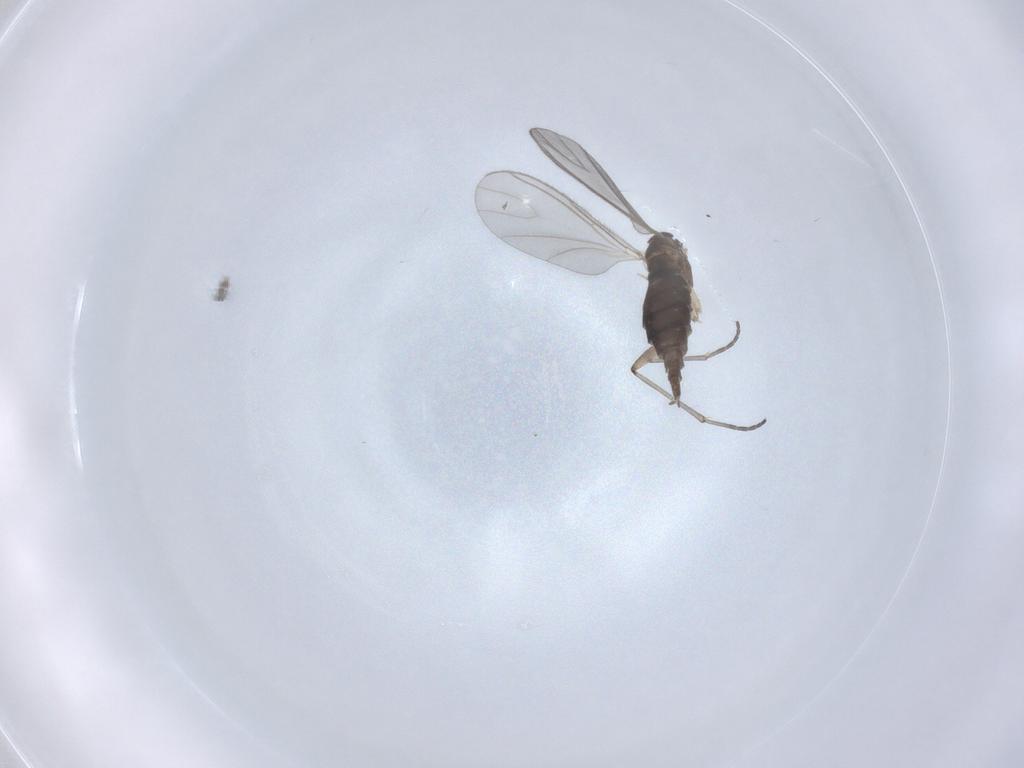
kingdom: Animalia
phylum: Arthropoda
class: Insecta
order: Diptera
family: Sciaridae
